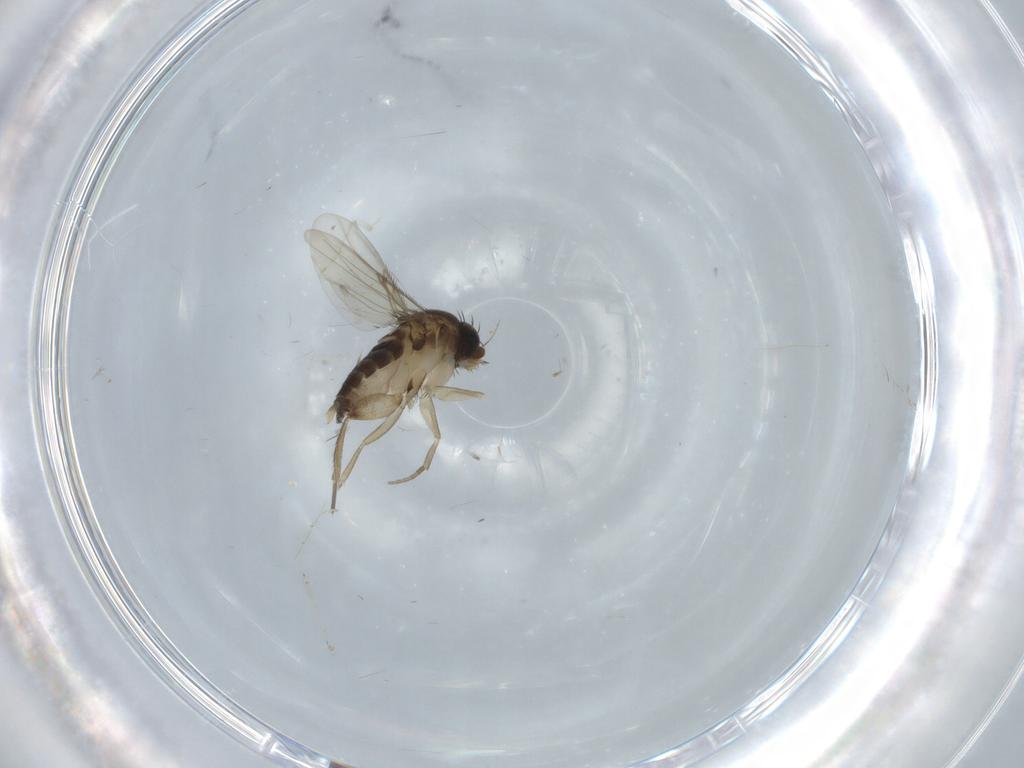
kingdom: Animalia
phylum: Arthropoda
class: Insecta
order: Diptera
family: Phoridae
